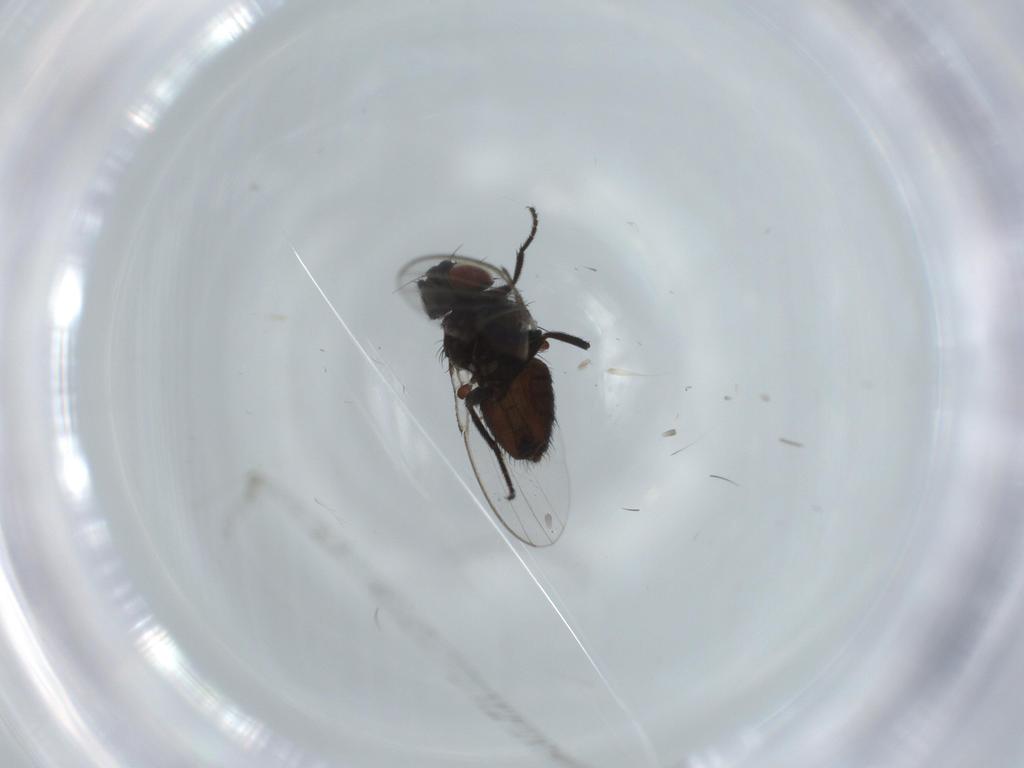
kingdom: Animalia
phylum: Arthropoda
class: Insecta
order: Diptera
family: Milichiidae
